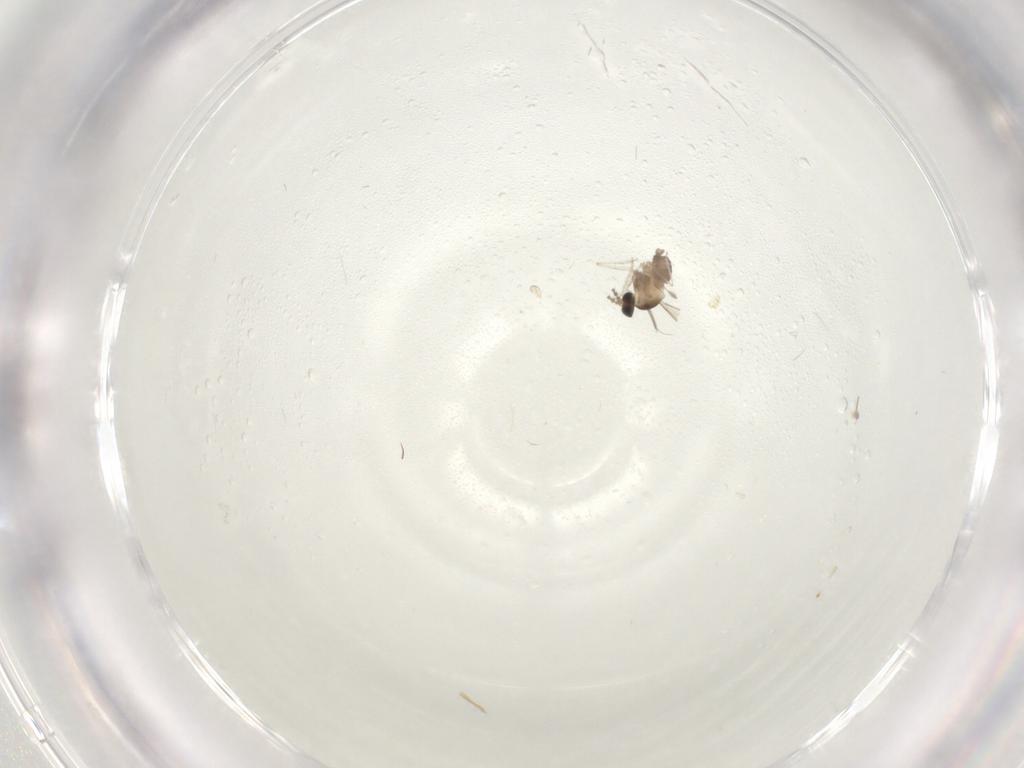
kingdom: Animalia
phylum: Arthropoda
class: Insecta
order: Diptera
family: Cecidomyiidae
